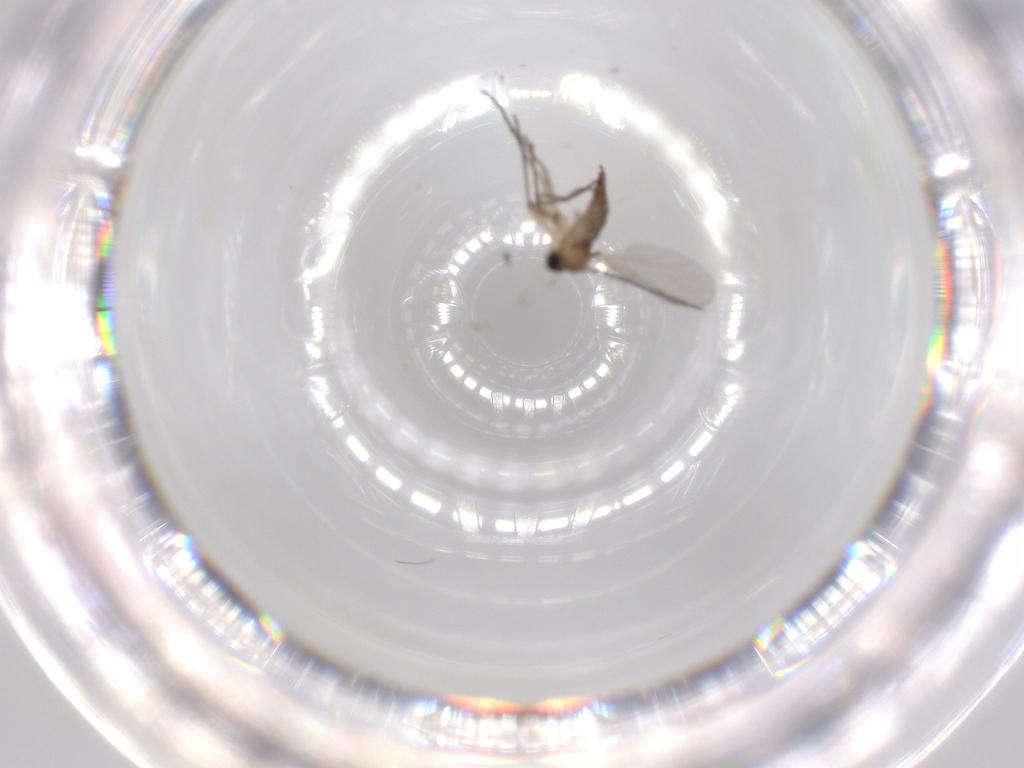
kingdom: Animalia
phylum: Arthropoda
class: Insecta
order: Diptera
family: Sciaridae
